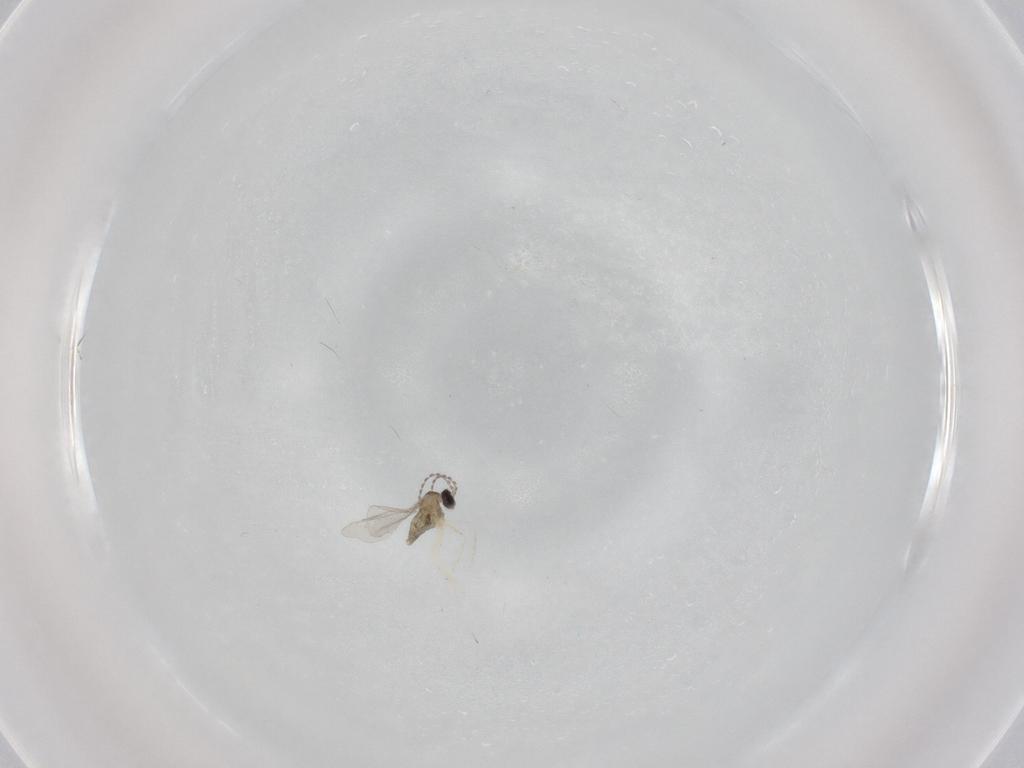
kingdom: Animalia
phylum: Arthropoda
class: Insecta
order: Diptera
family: Cecidomyiidae
